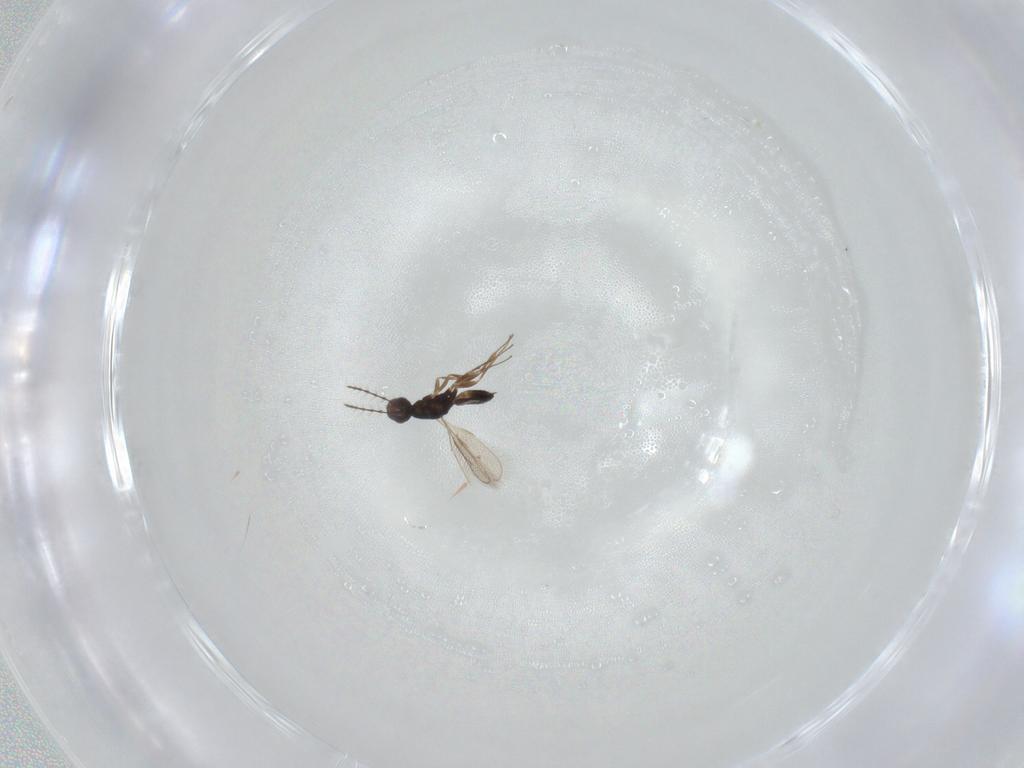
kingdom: Animalia
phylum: Arthropoda
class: Insecta
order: Hymenoptera
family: Pteromalidae
